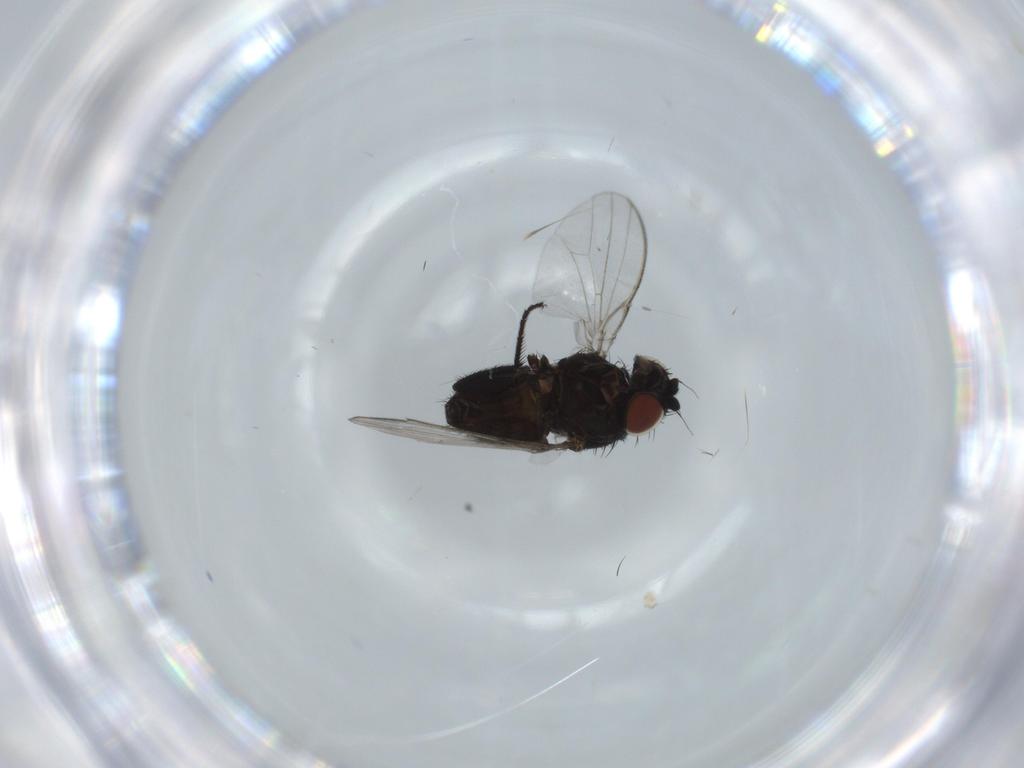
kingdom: Animalia
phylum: Arthropoda
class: Insecta
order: Diptera
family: Milichiidae
